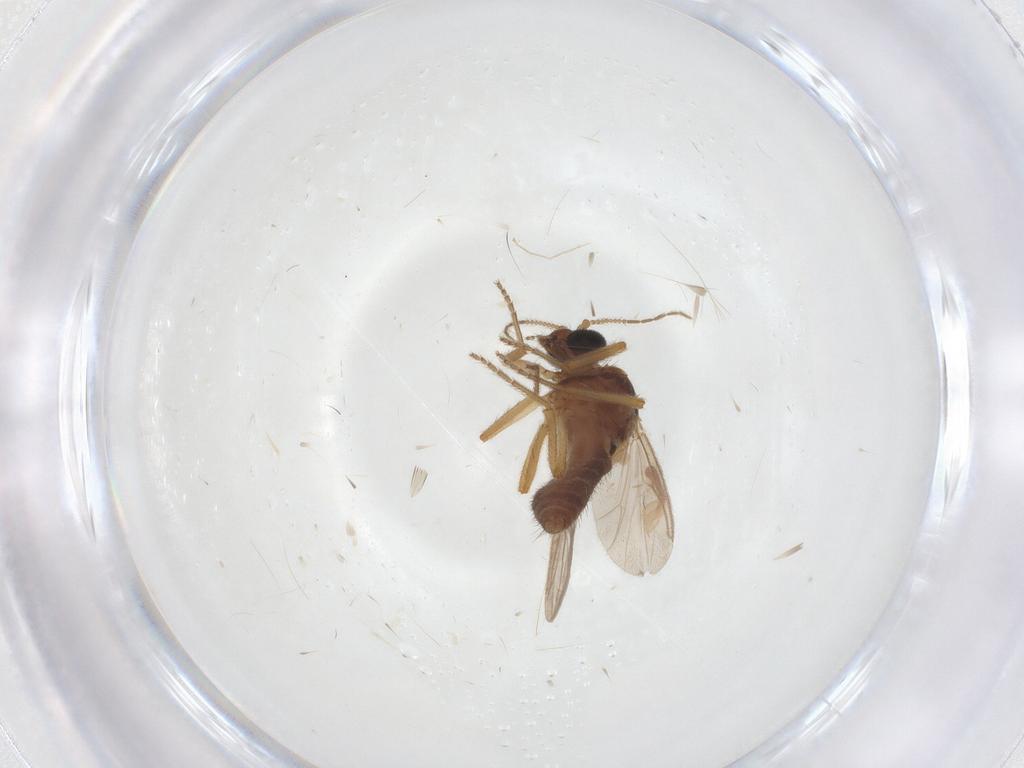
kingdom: Animalia
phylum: Arthropoda
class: Insecta
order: Diptera
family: Ceratopogonidae
